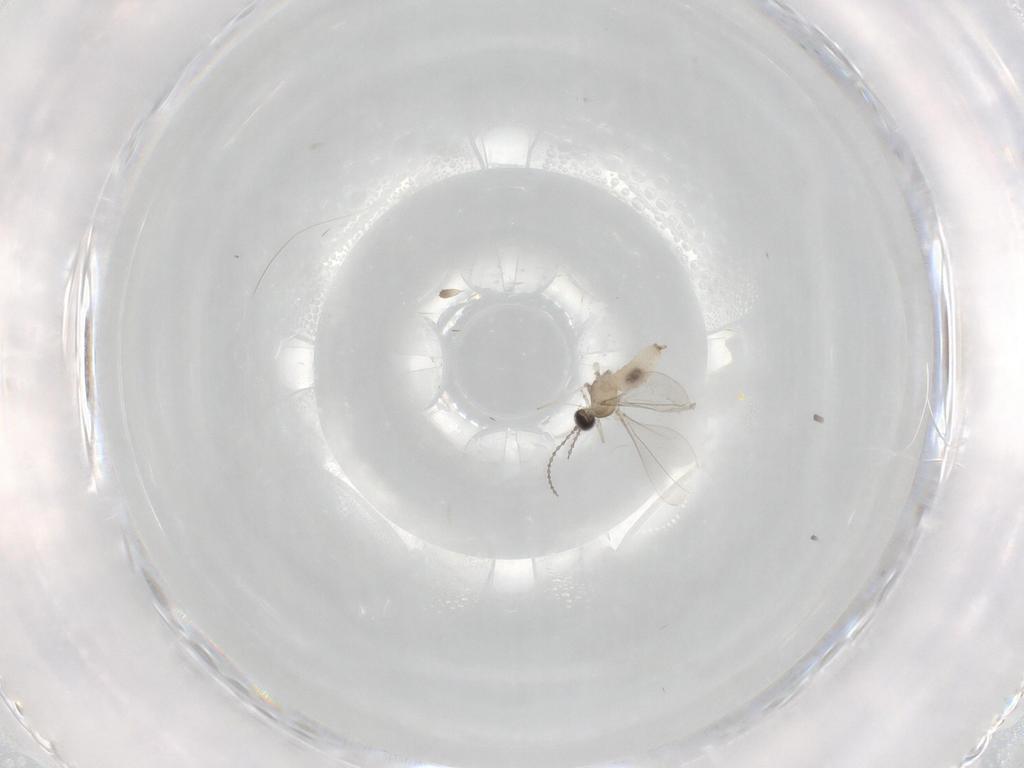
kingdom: Animalia
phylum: Arthropoda
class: Insecta
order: Diptera
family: Cecidomyiidae
